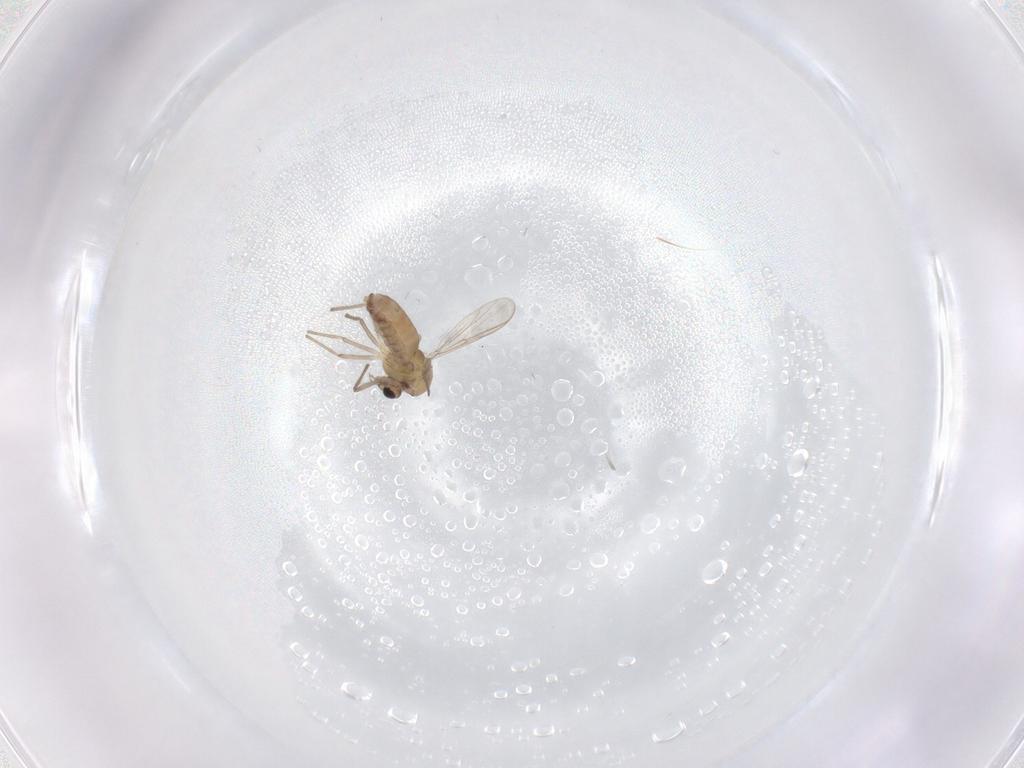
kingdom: Animalia
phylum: Arthropoda
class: Insecta
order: Diptera
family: Chironomidae
